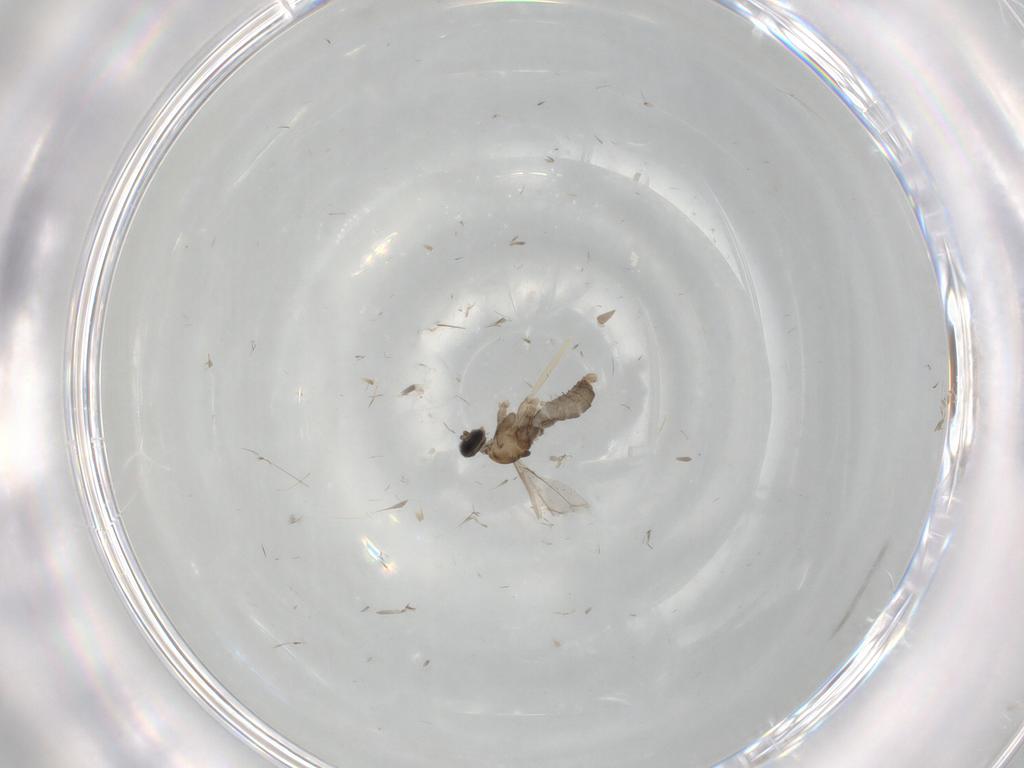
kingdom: Animalia
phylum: Arthropoda
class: Insecta
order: Diptera
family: Cecidomyiidae
